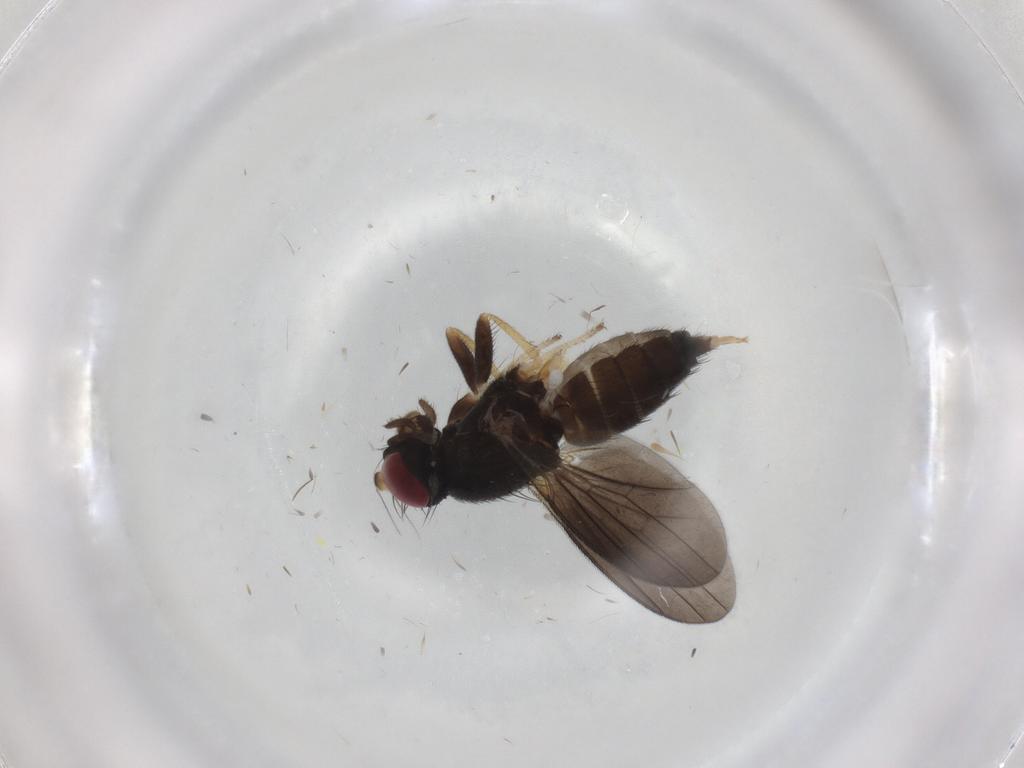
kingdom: Animalia
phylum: Arthropoda
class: Insecta
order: Diptera
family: Clusiidae
